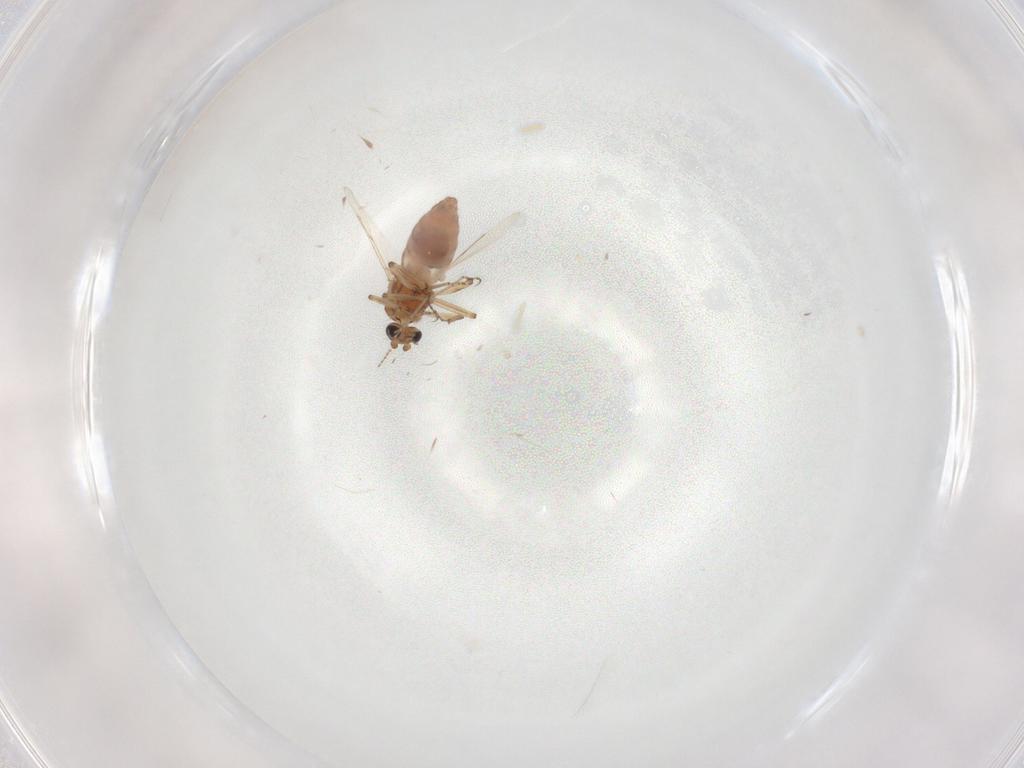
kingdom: Animalia
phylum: Arthropoda
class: Insecta
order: Diptera
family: Ceratopogonidae
